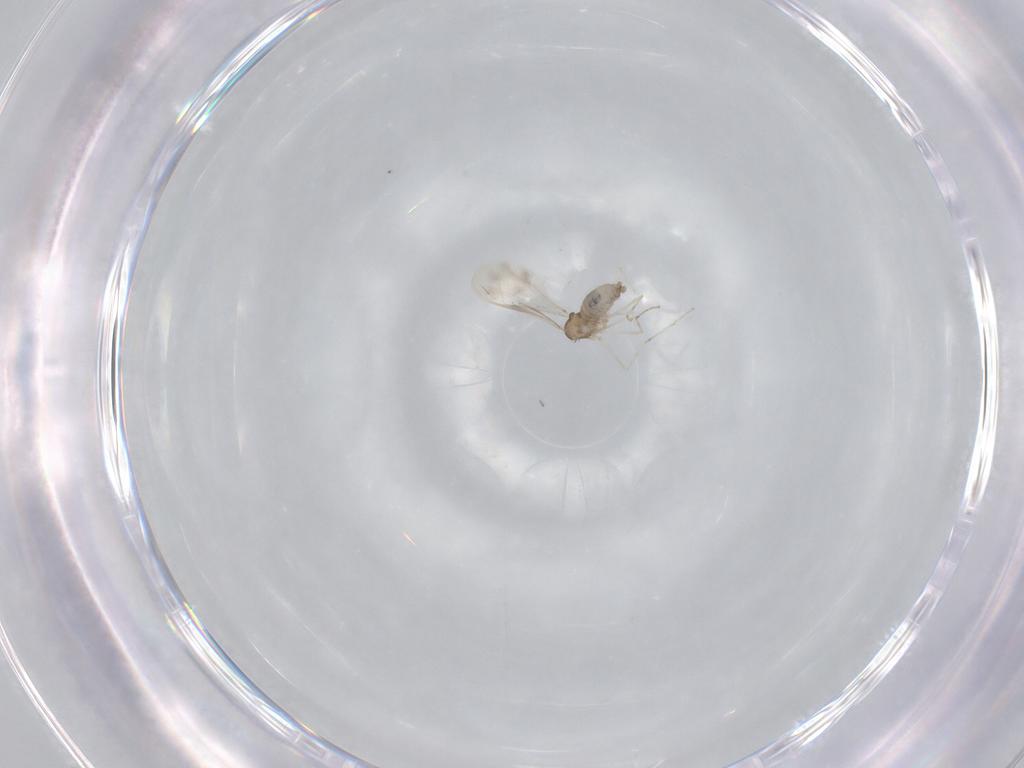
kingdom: Animalia
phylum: Arthropoda
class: Insecta
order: Diptera
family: Cecidomyiidae
